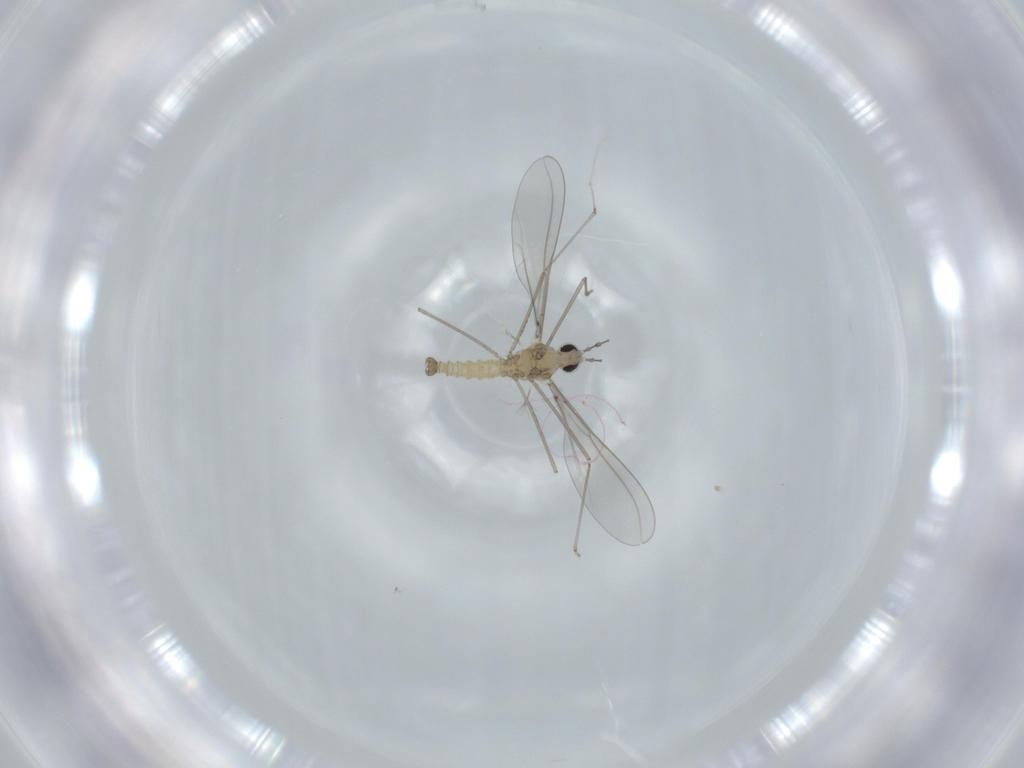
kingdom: Animalia
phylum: Arthropoda
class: Insecta
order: Diptera
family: Cecidomyiidae
